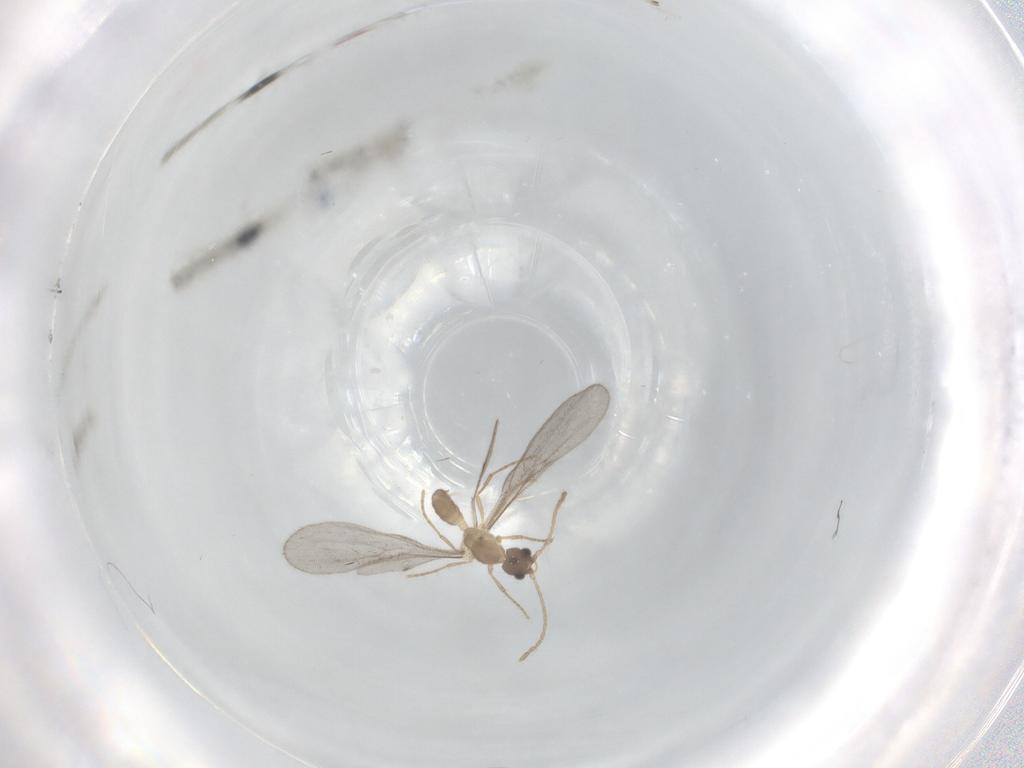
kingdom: Animalia
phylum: Arthropoda
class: Insecta
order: Hymenoptera
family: Formicidae
